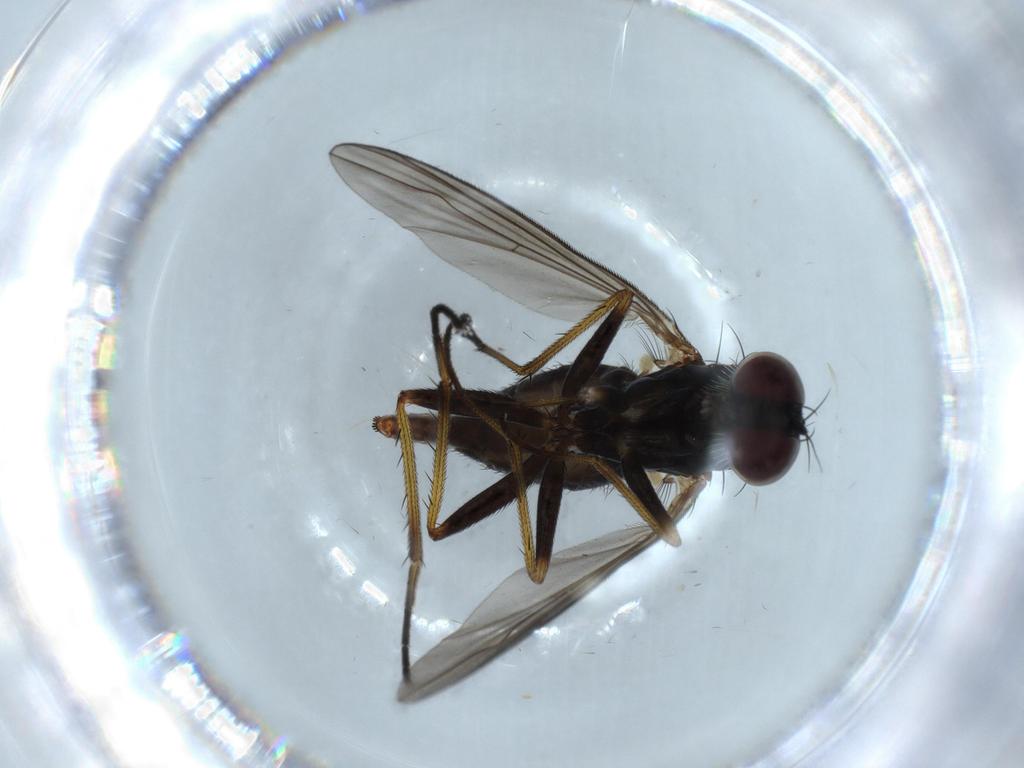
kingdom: Animalia
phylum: Arthropoda
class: Insecta
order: Diptera
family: Dolichopodidae
